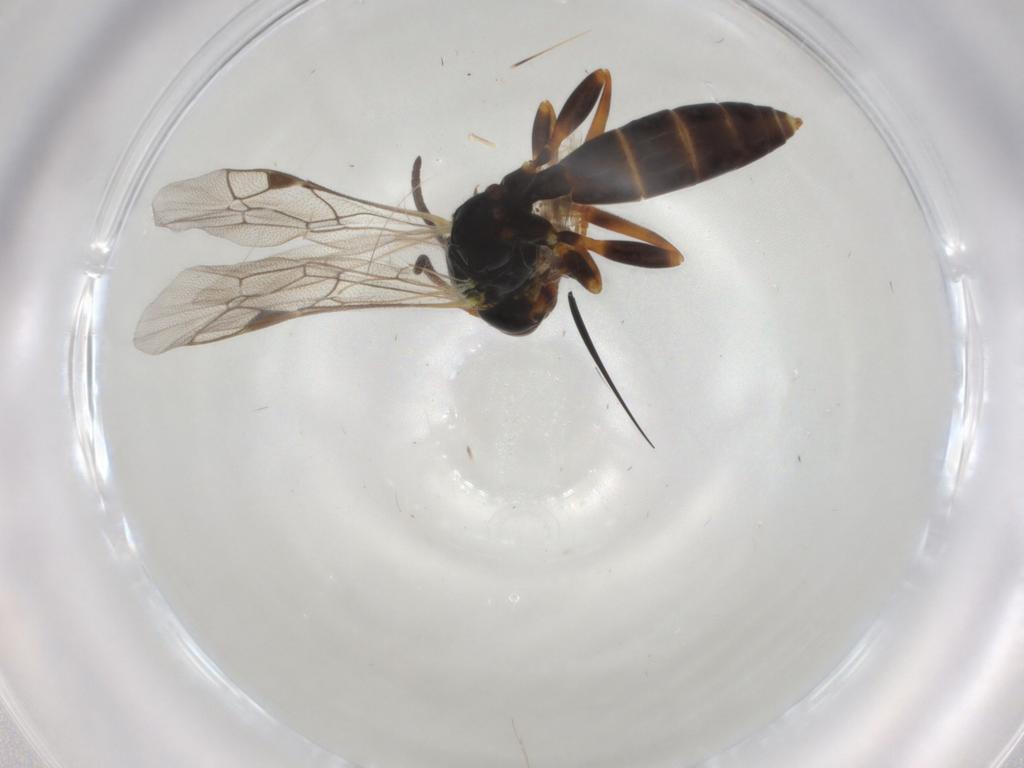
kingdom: Animalia
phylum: Arthropoda
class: Insecta
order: Hymenoptera
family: Ichneumonidae
